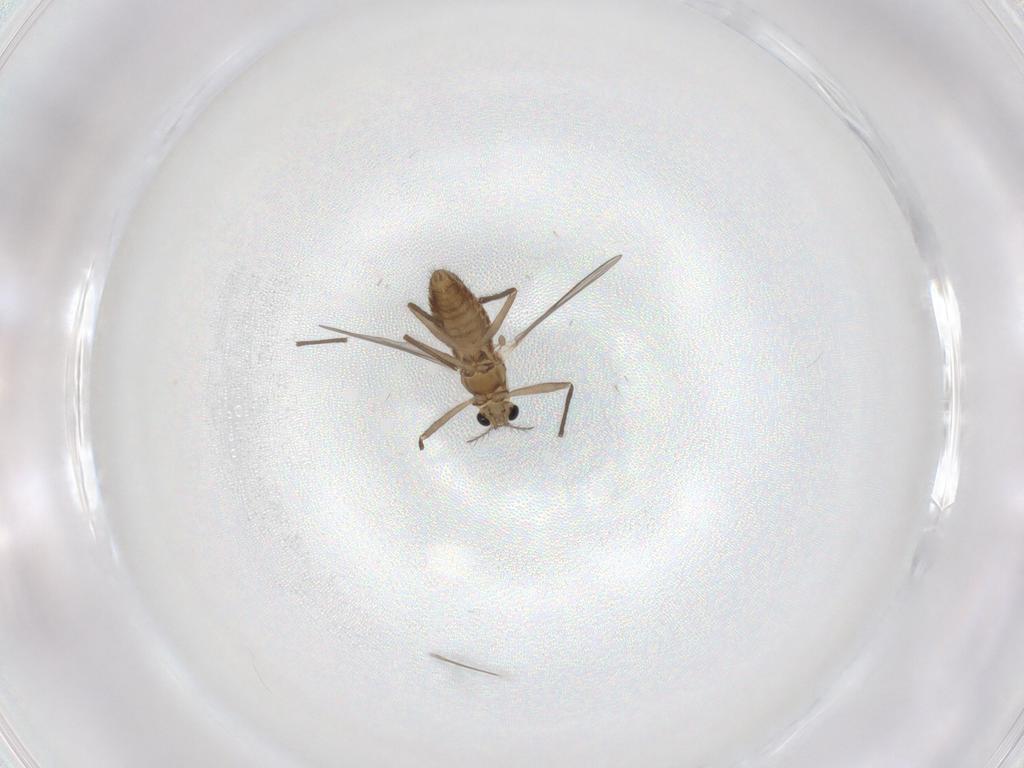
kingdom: Animalia
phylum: Arthropoda
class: Insecta
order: Diptera
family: Chironomidae
